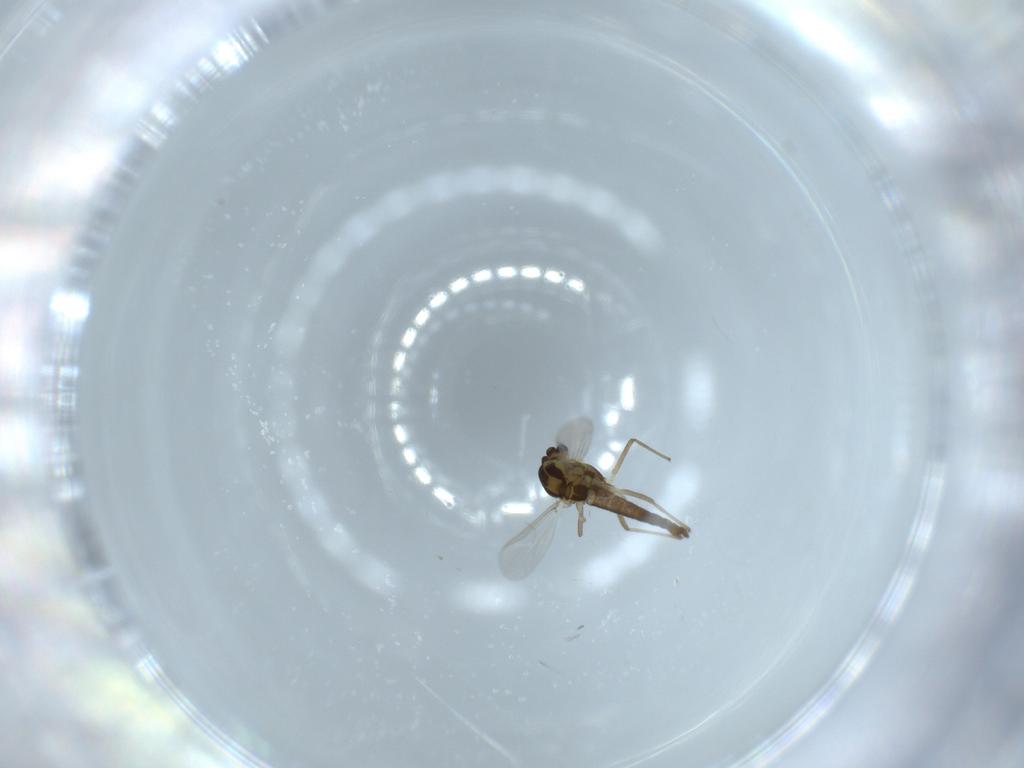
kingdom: Animalia
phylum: Arthropoda
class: Insecta
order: Diptera
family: Chironomidae
